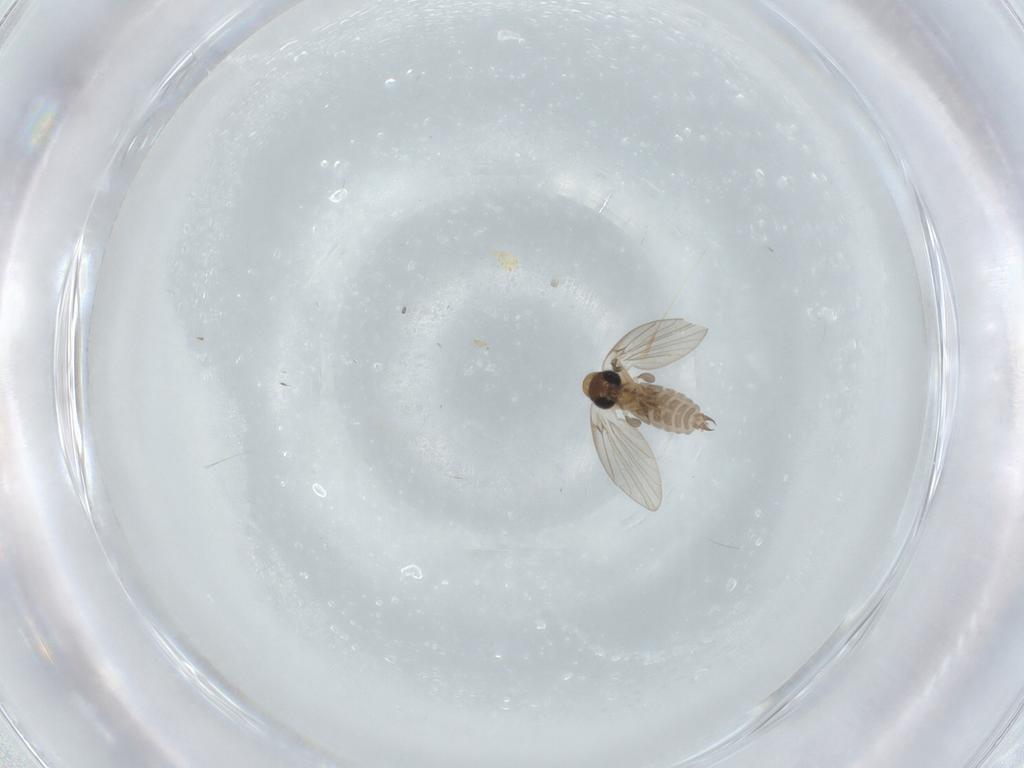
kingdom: Animalia
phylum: Arthropoda
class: Insecta
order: Diptera
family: Psychodidae
